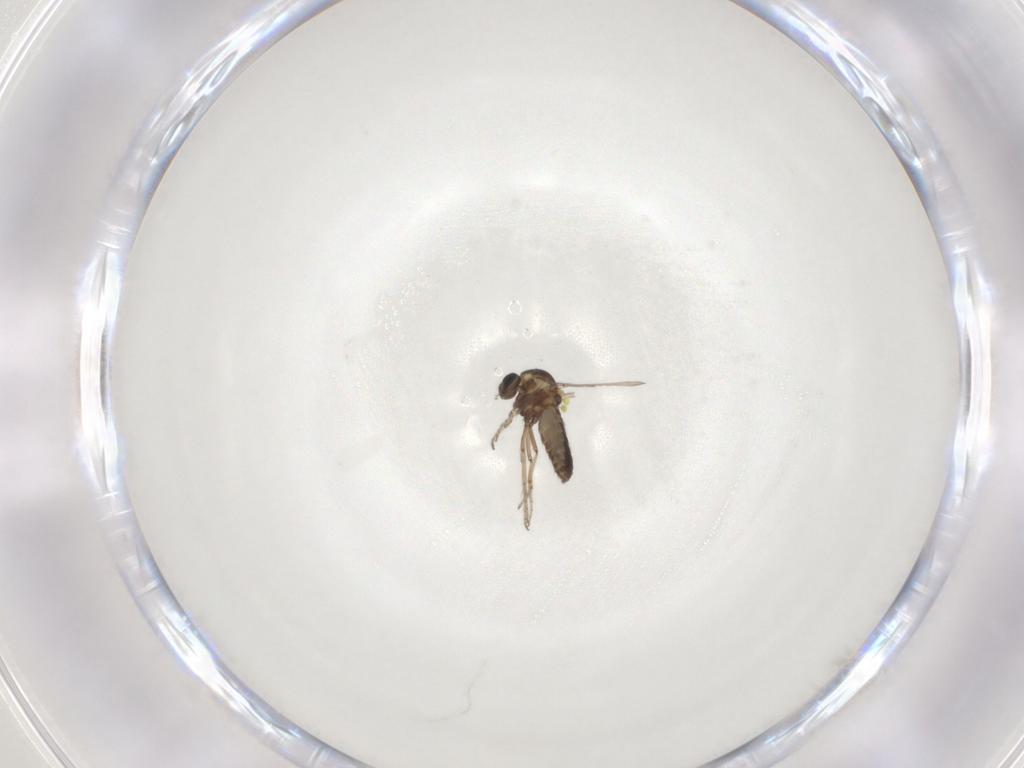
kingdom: Animalia
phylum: Arthropoda
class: Insecta
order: Diptera
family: Ceratopogonidae
